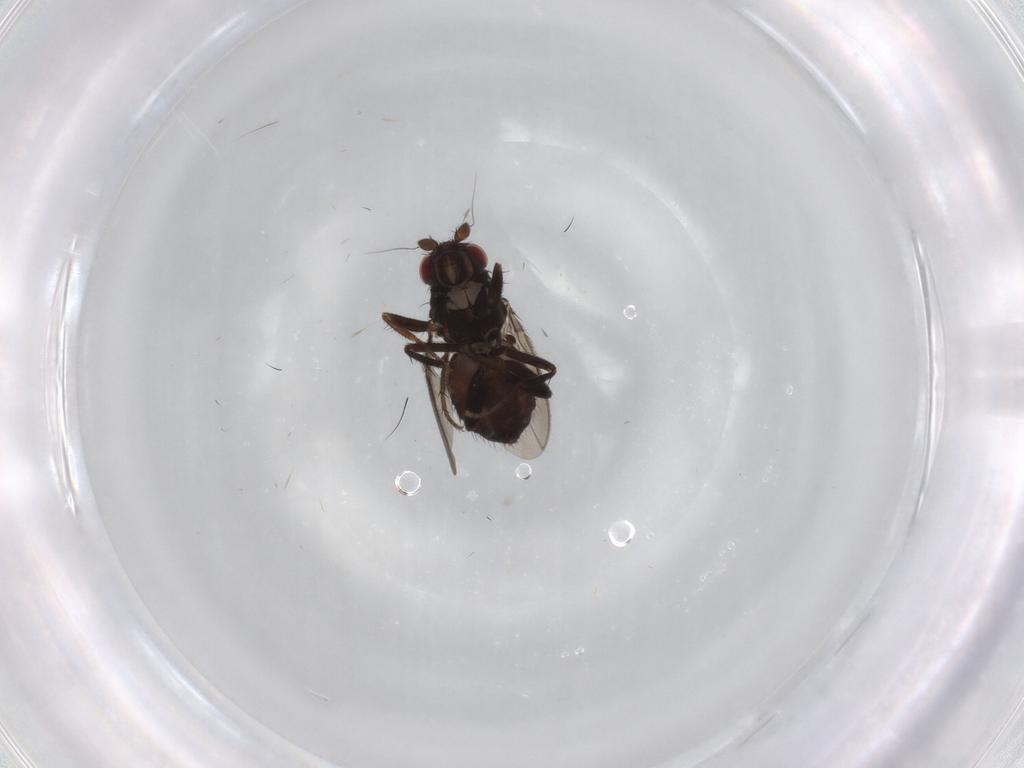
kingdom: Animalia
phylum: Arthropoda
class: Insecta
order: Diptera
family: Sphaeroceridae
